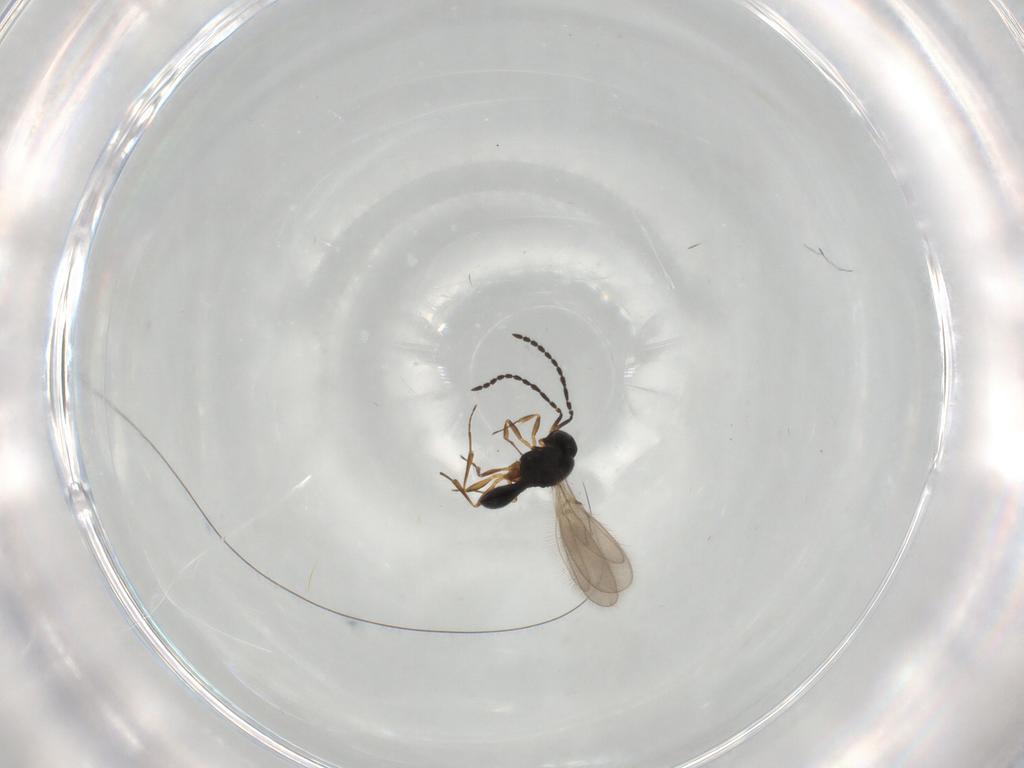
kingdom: Animalia
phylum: Arthropoda
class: Insecta
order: Hymenoptera
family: Scelionidae
